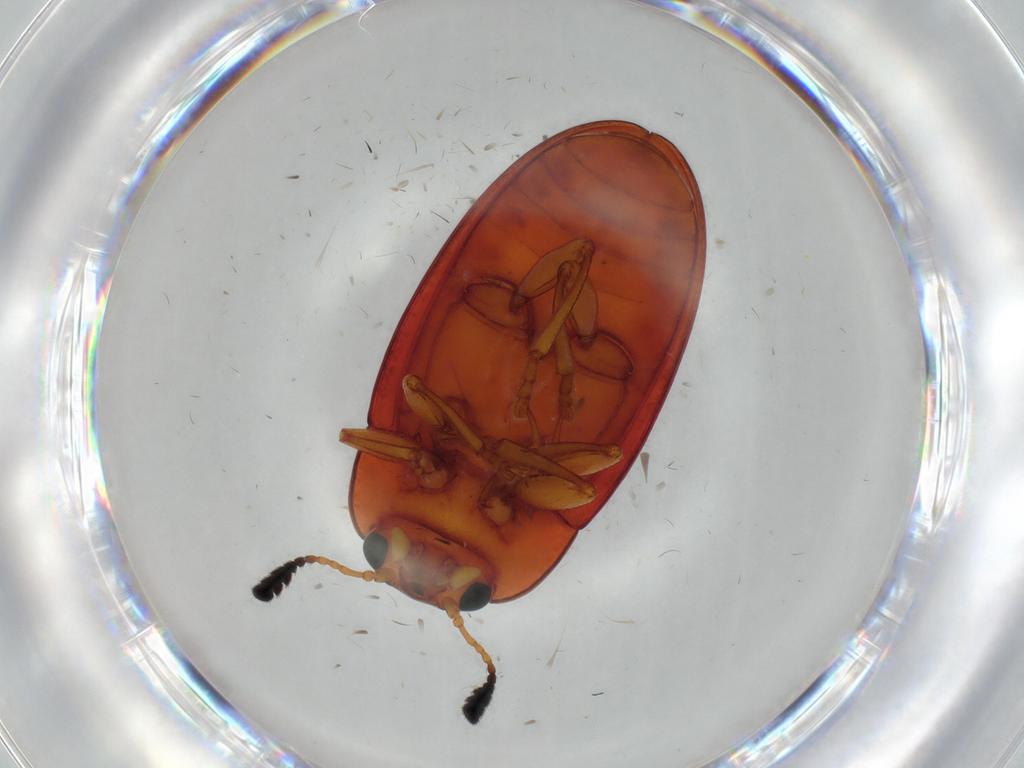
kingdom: Animalia
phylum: Arthropoda
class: Insecta
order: Coleoptera
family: Erotylidae
